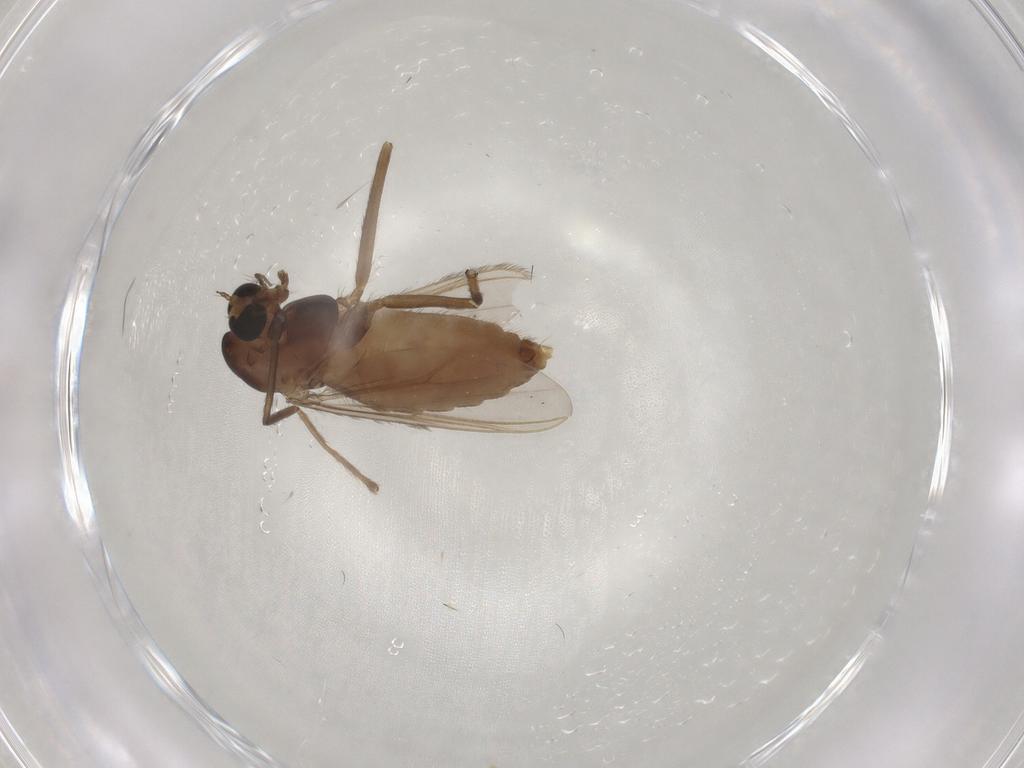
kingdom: Animalia
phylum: Arthropoda
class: Insecta
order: Diptera
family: Chironomidae
